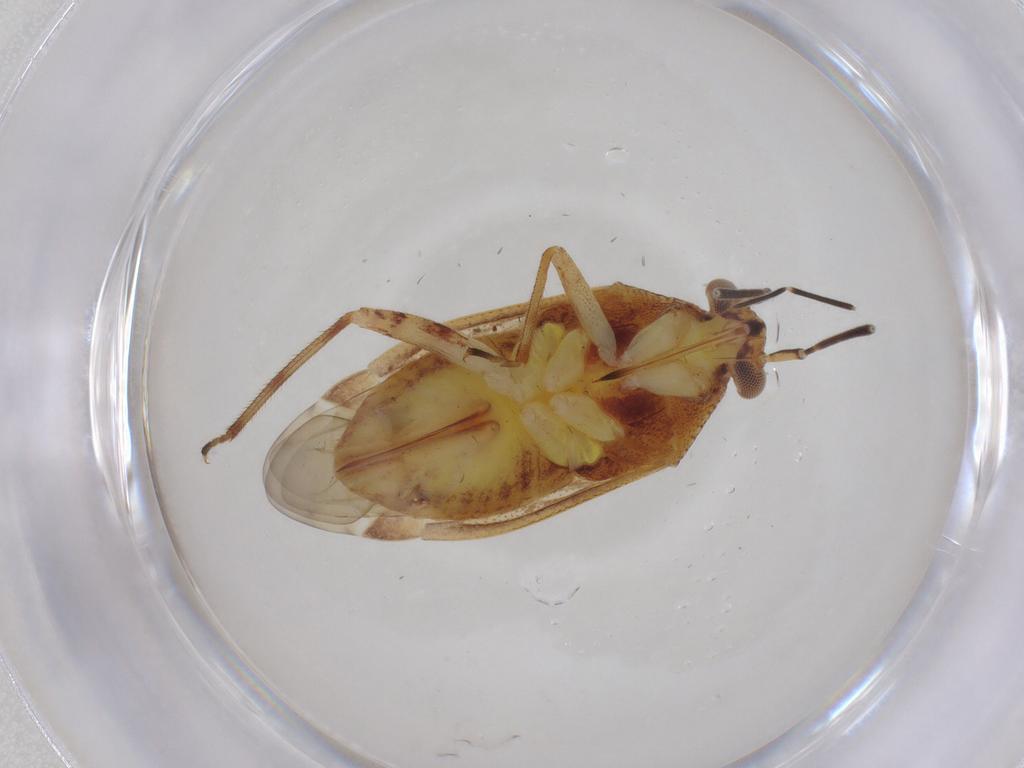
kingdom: Animalia
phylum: Arthropoda
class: Insecta
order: Hemiptera
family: Miridae
